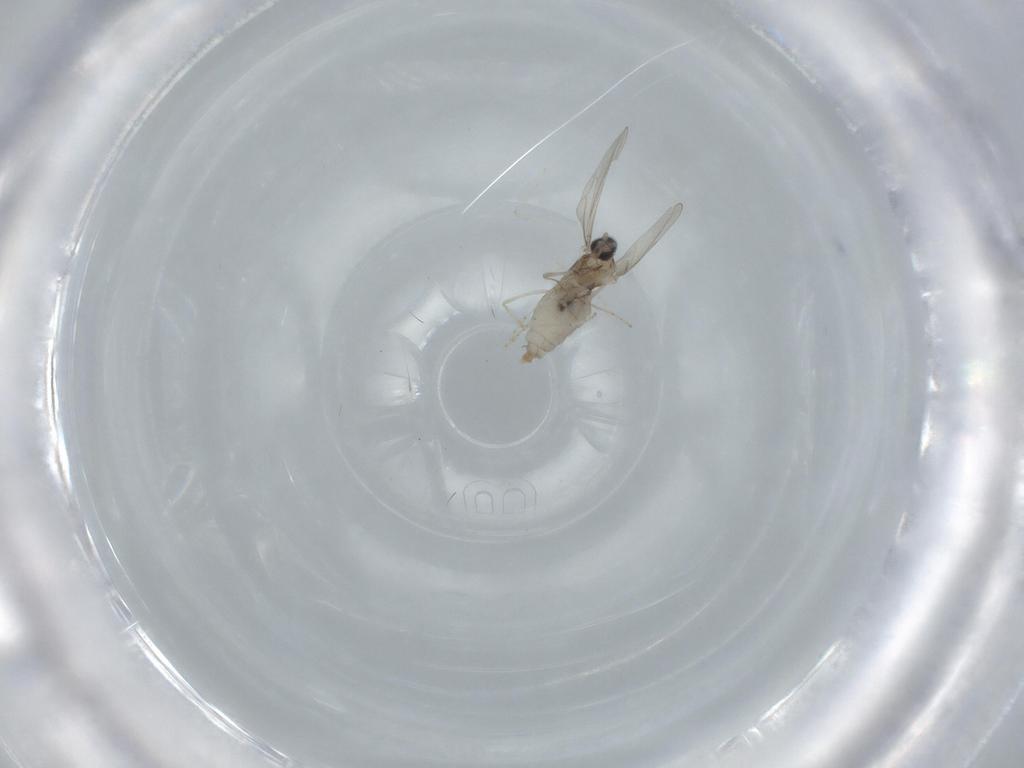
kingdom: Animalia
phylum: Arthropoda
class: Insecta
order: Diptera
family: Cecidomyiidae
